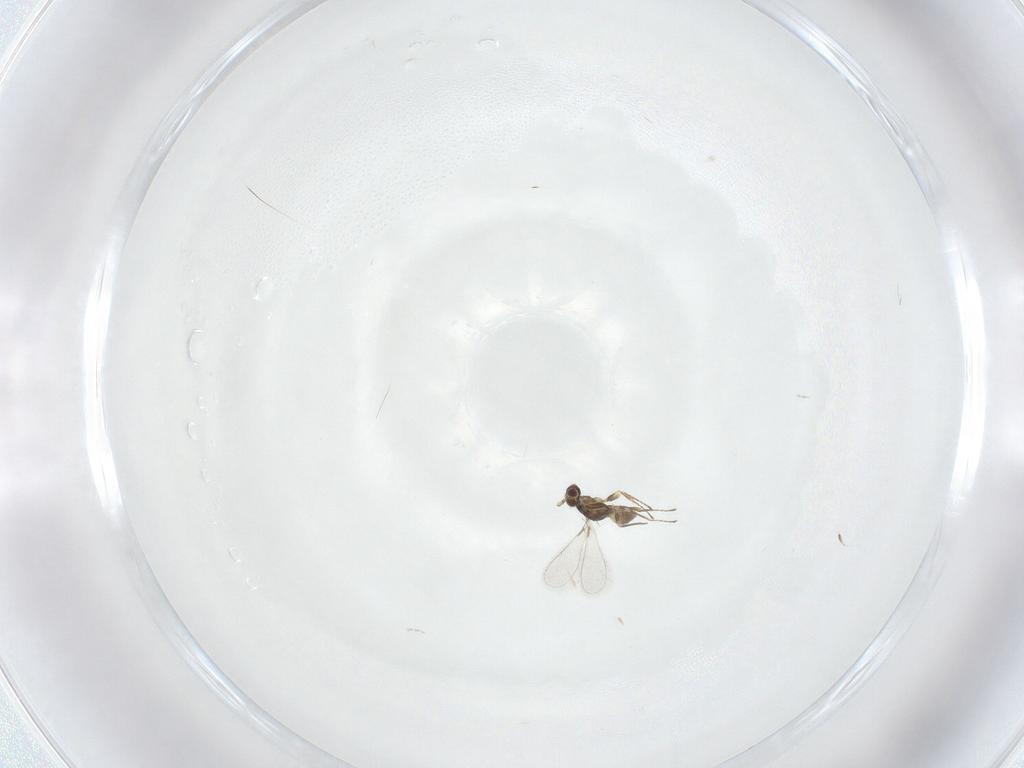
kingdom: Animalia
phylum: Arthropoda
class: Insecta
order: Hymenoptera
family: Mymaridae
